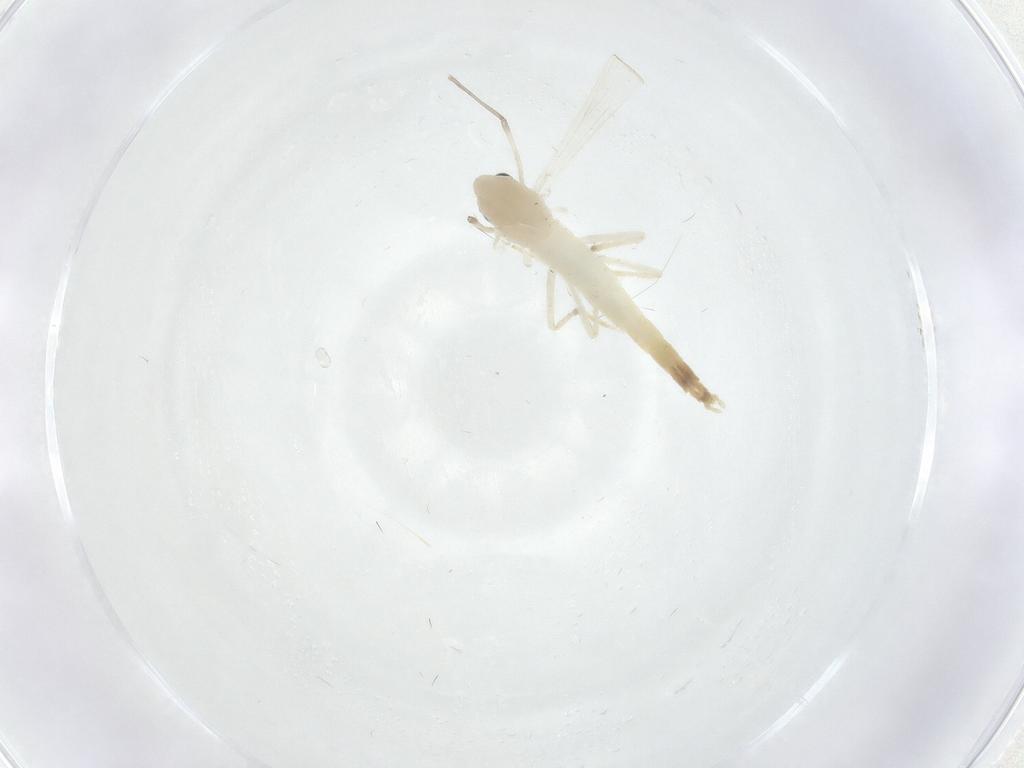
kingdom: Animalia
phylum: Arthropoda
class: Insecta
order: Diptera
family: Chironomidae
